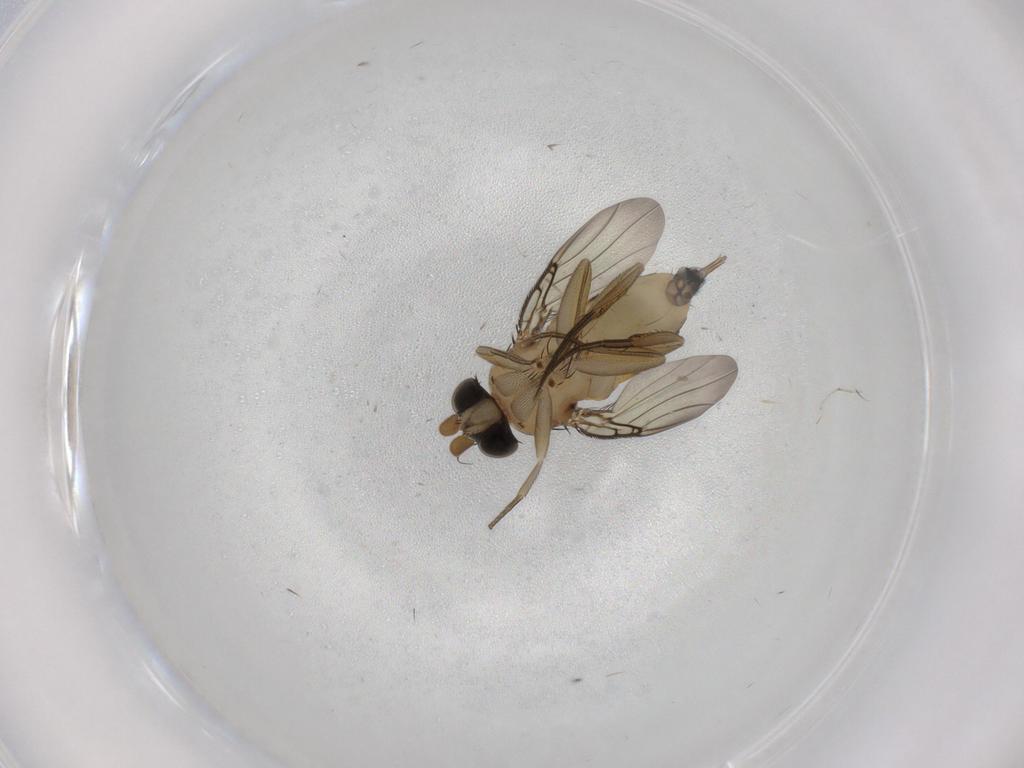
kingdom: Animalia
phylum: Arthropoda
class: Insecta
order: Diptera
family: Phoridae
